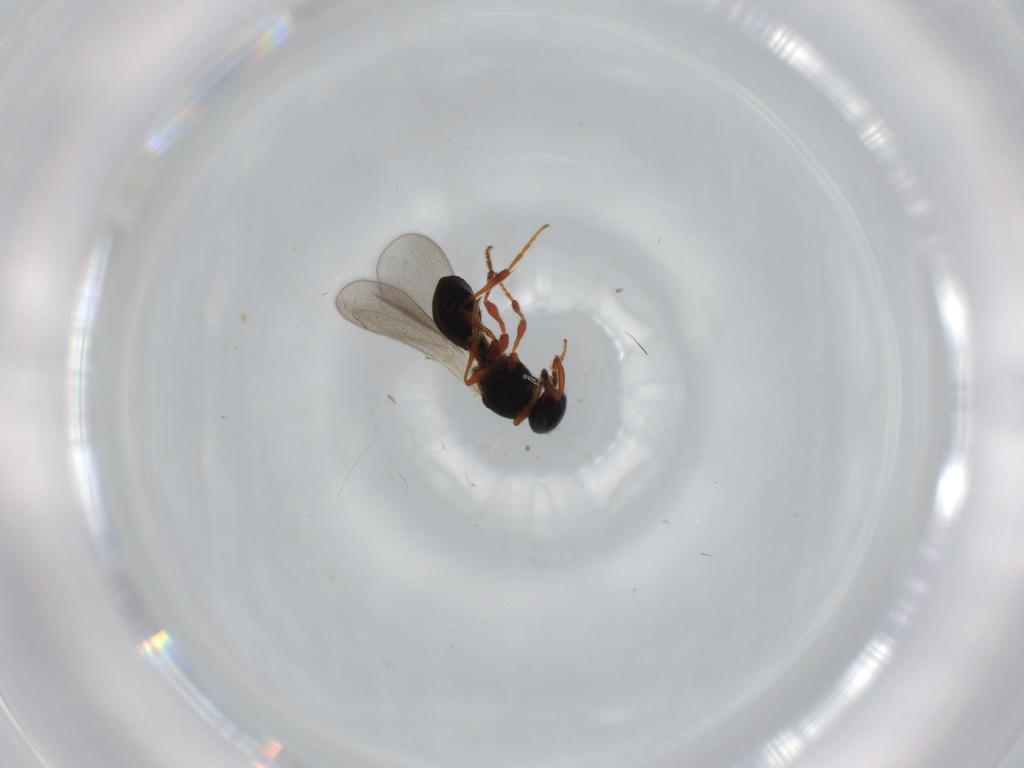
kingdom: Animalia
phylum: Arthropoda
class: Insecta
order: Hymenoptera
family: Platygastridae
